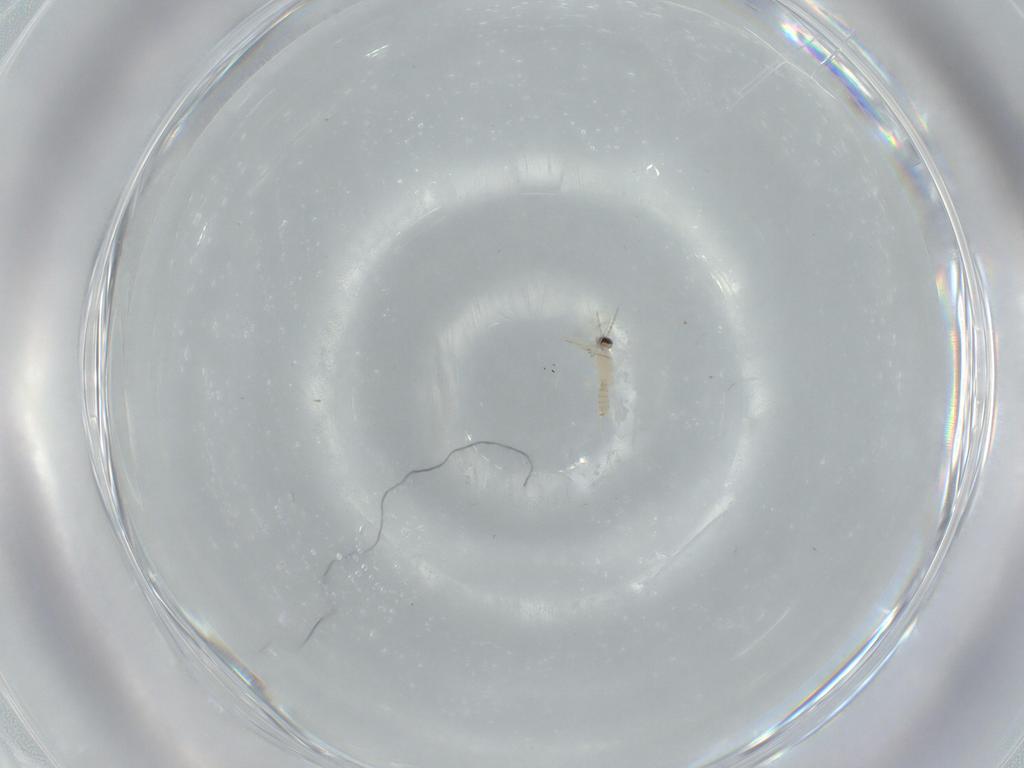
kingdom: Animalia
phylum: Arthropoda
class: Insecta
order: Diptera
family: Cecidomyiidae
